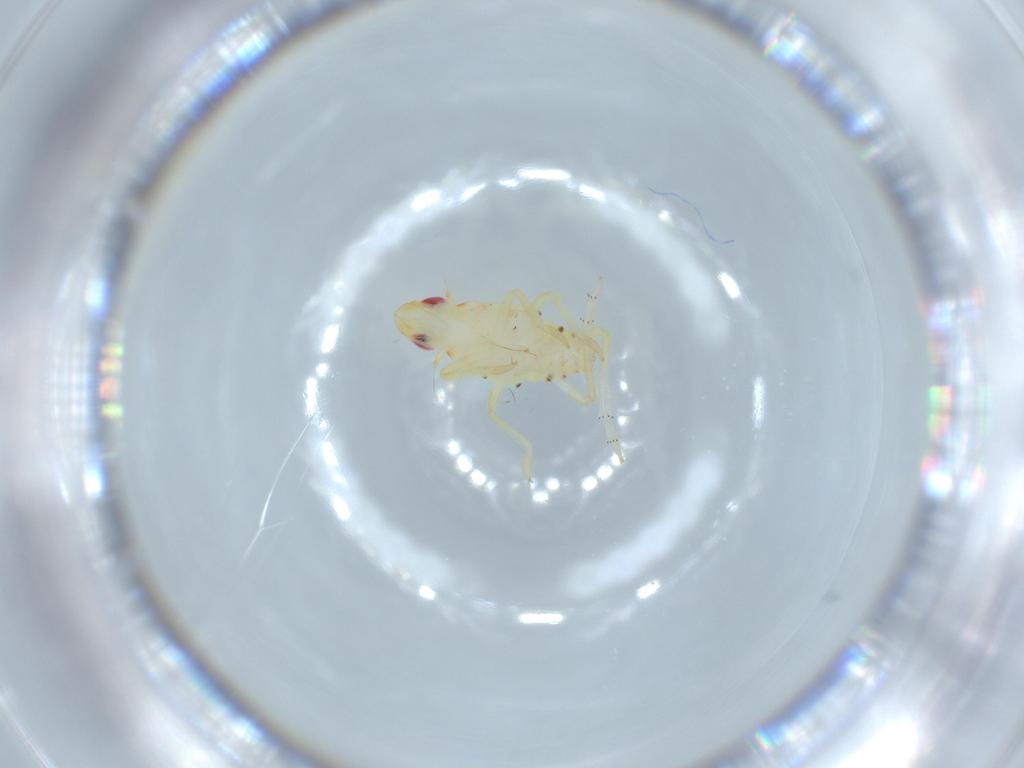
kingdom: Animalia
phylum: Arthropoda
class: Insecta
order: Hemiptera
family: Tropiduchidae
